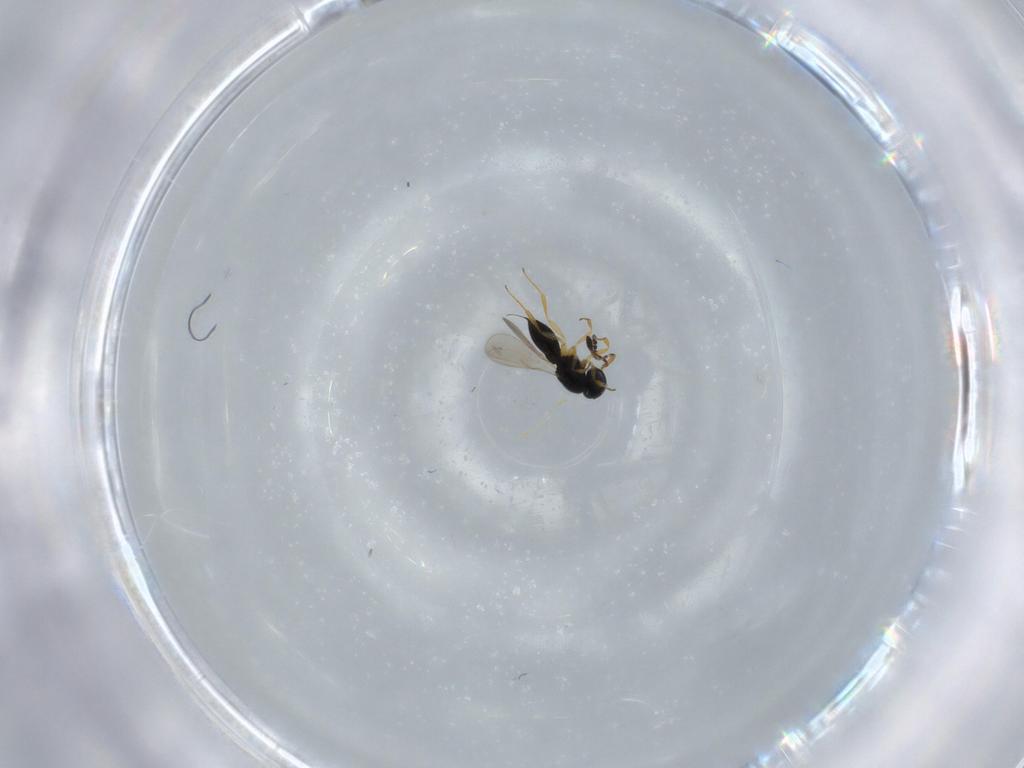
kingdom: Animalia
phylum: Arthropoda
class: Insecta
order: Hymenoptera
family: Scelionidae
